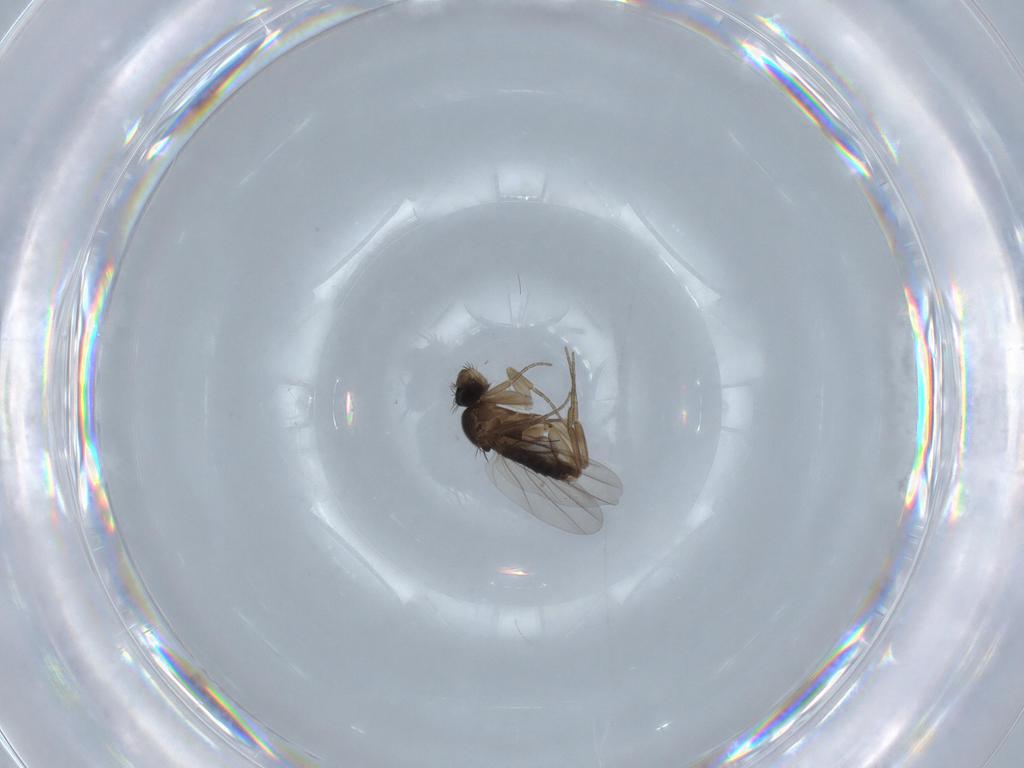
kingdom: Animalia
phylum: Arthropoda
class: Insecta
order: Diptera
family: Phoridae
